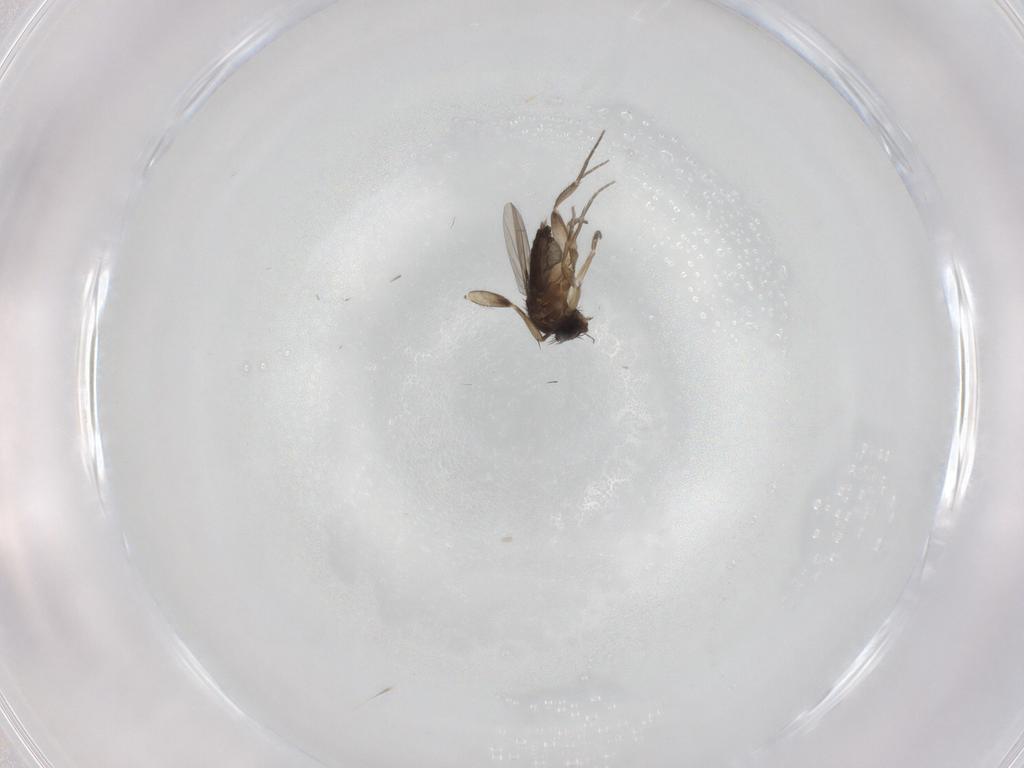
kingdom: Animalia
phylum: Arthropoda
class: Insecta
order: Diptera
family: Phoridae
